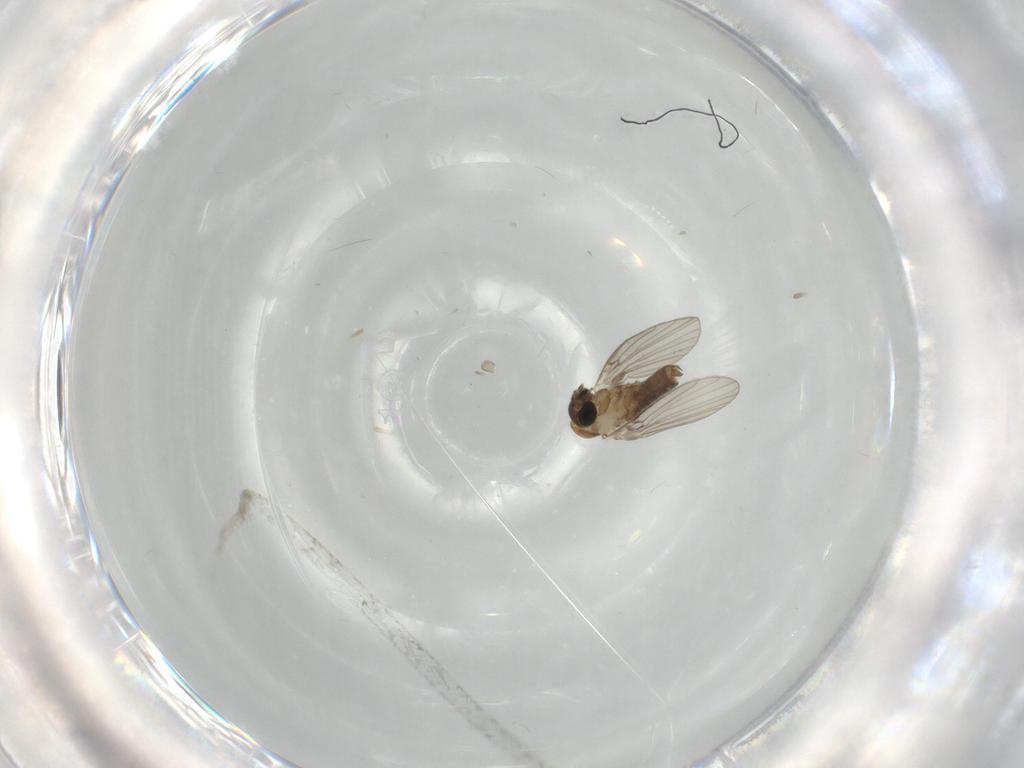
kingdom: Animalia
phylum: Arthropoda
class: Insecta
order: Diptera
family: Psychodidae
